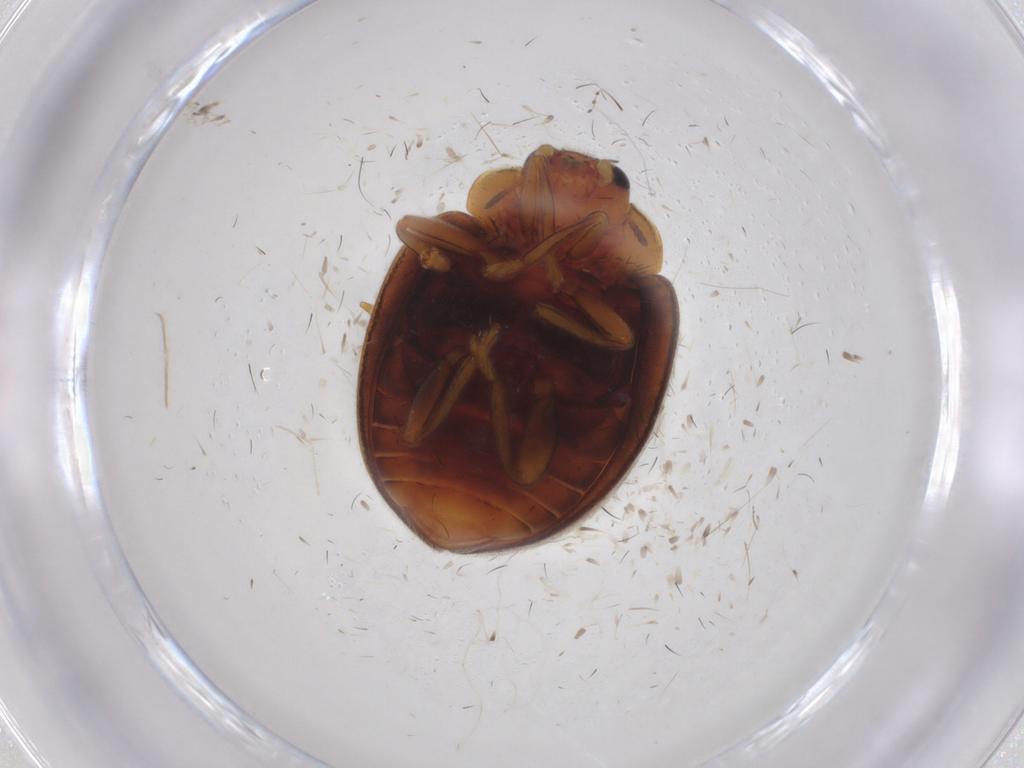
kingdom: Animalia
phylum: Arthropoda
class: Insecta
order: Coleoptera
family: Coccinellidae
